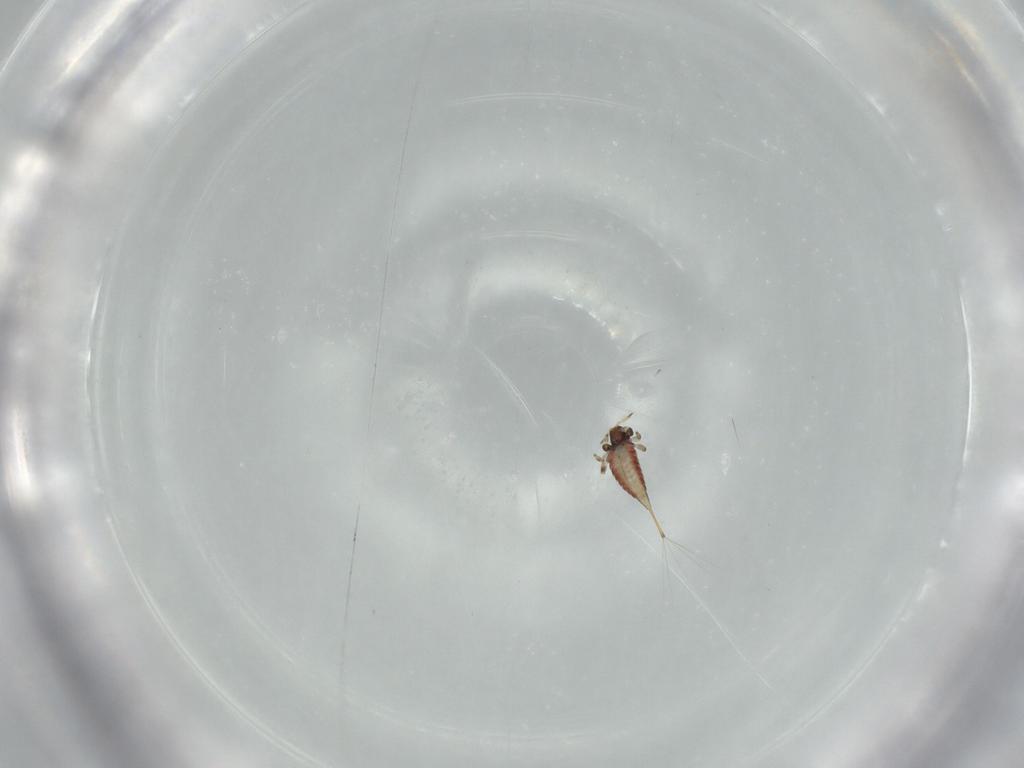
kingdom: Animalia
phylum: Arthropoda
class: Insecta
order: Thysanoptera
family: Phlaeothripidae
